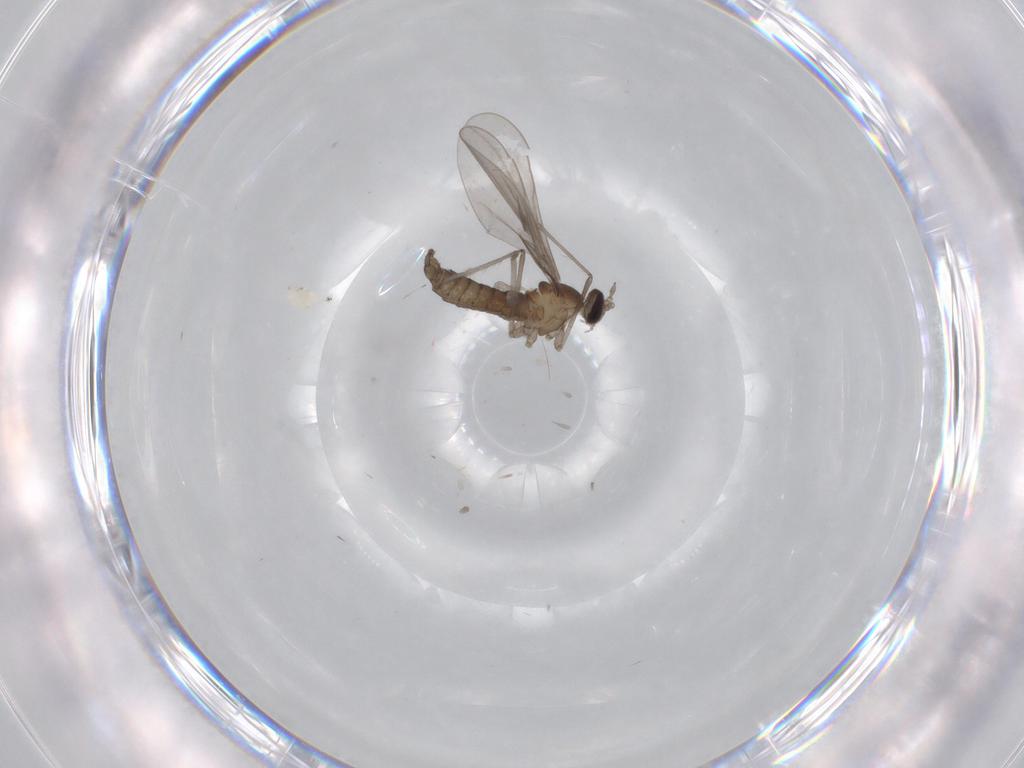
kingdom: Animalia
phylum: Arthropoda
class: Insecta
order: Diptera
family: Cecidomyiidae
